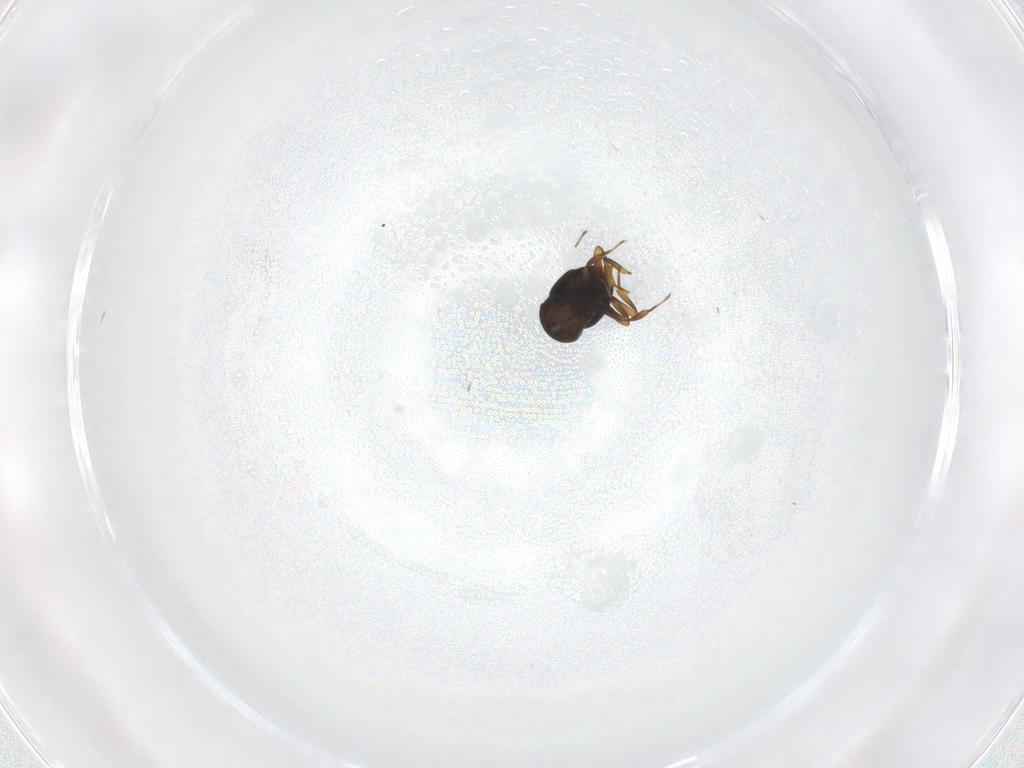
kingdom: Animalia
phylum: Arthropoda
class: Insecta
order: Hymenoptera
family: Scelionidae
